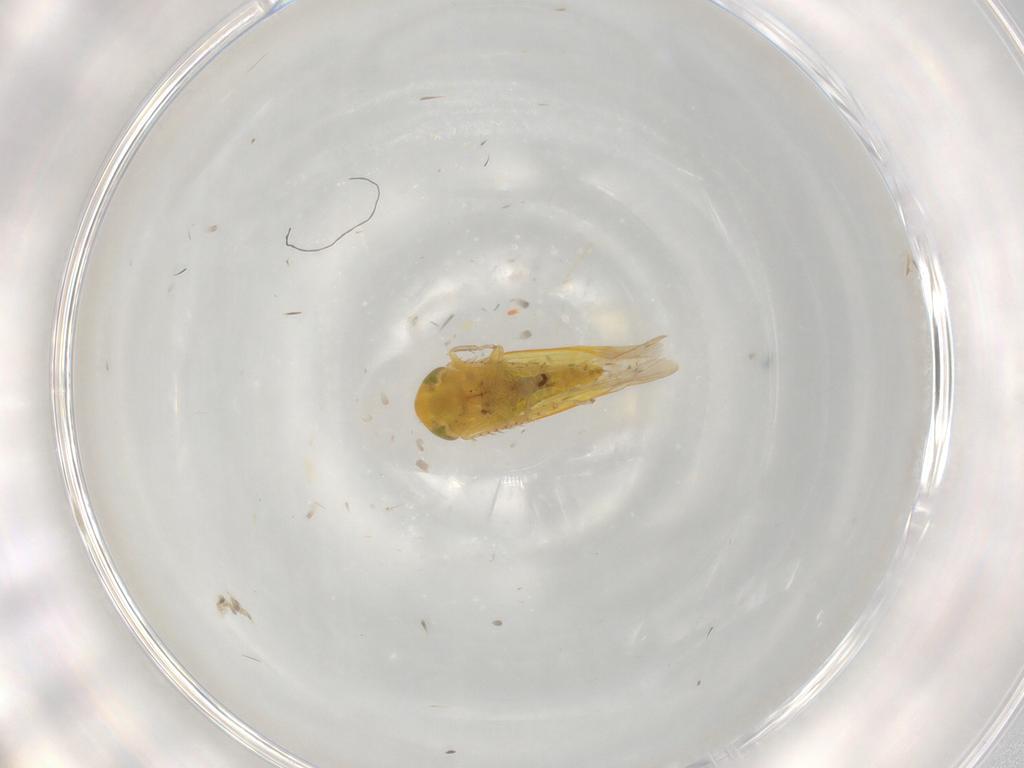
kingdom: Animalia
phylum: Arthropoda
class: Insecta
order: Hemiptera
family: Cicadellidae
